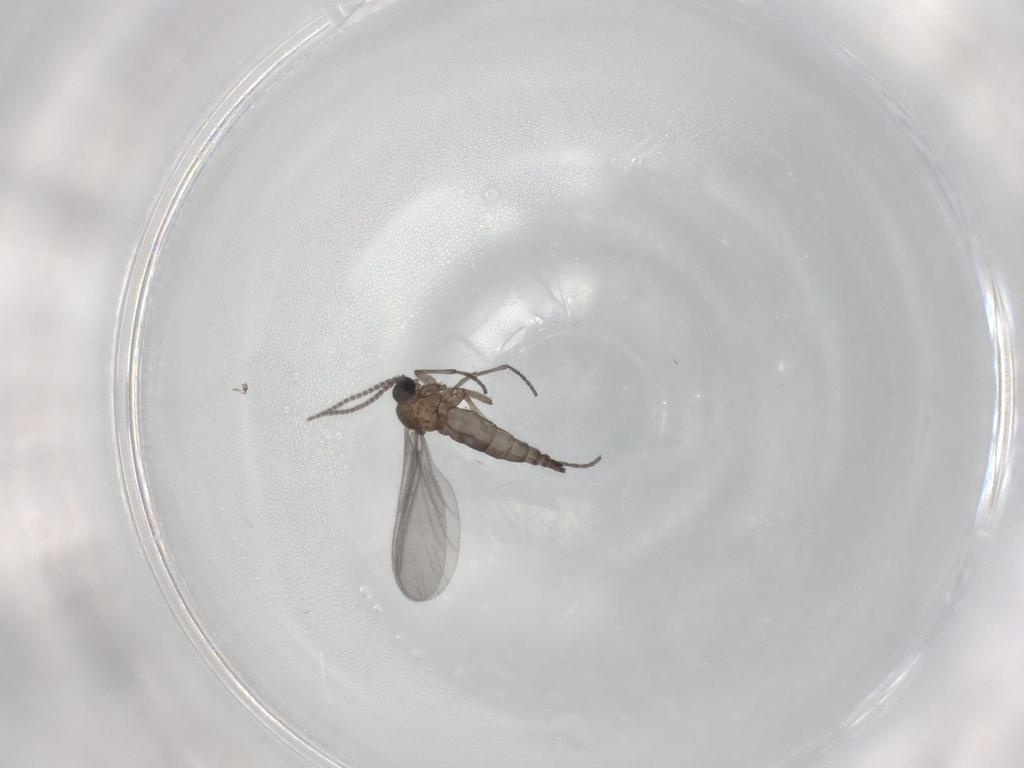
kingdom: Animalia
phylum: Arthropoda
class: Insecta
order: Diptera
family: Sciaridae
